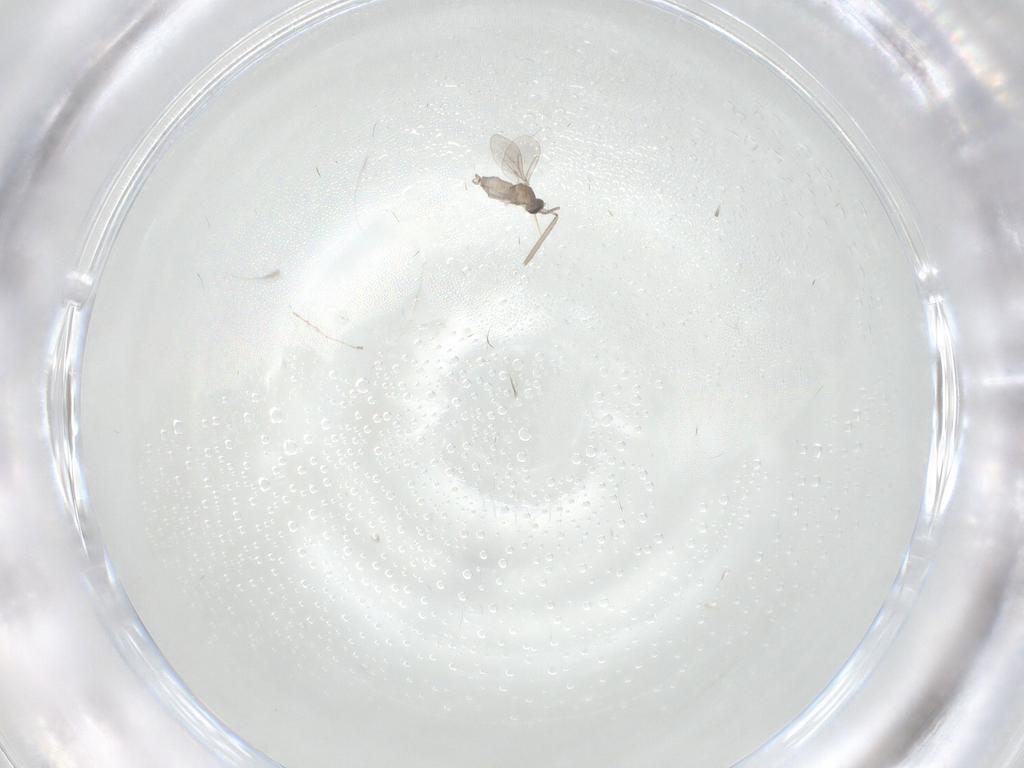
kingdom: Animalia
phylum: Arthropoda
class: Insecta
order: Diptera
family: Cecidomyiidae
